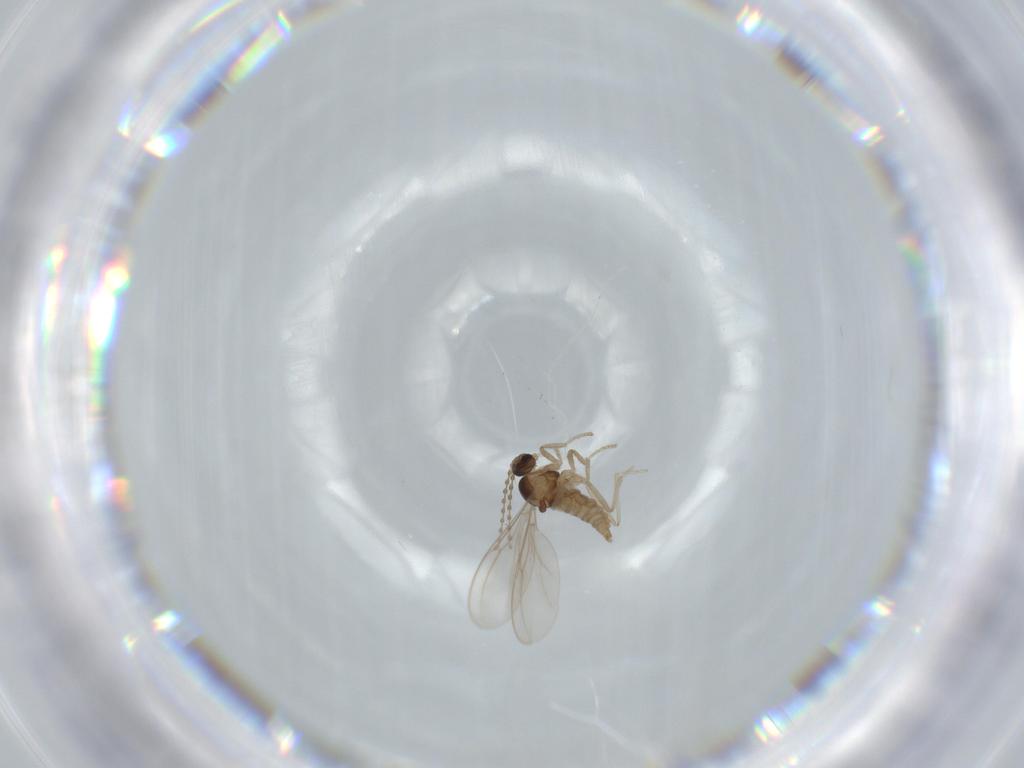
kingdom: Animalia
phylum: Arthropoda
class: Insecta
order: Diptera
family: Cecidomyiidae
